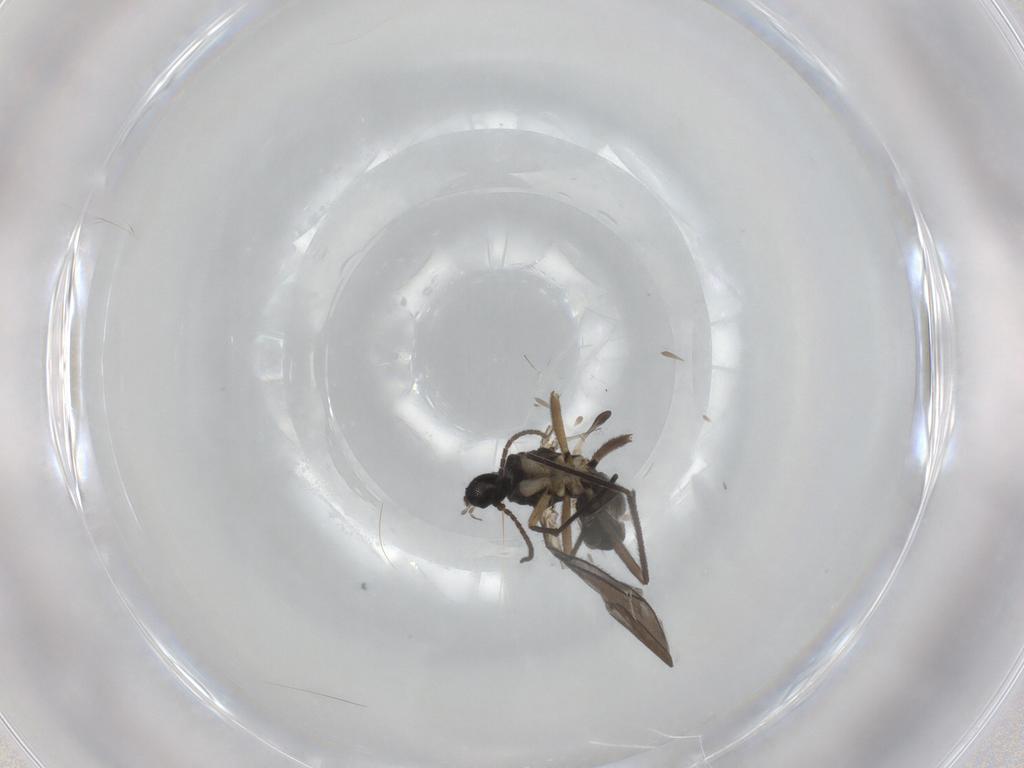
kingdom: Animalia
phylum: Arthropoda
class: Insecta
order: Diptera
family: Sciaridae
